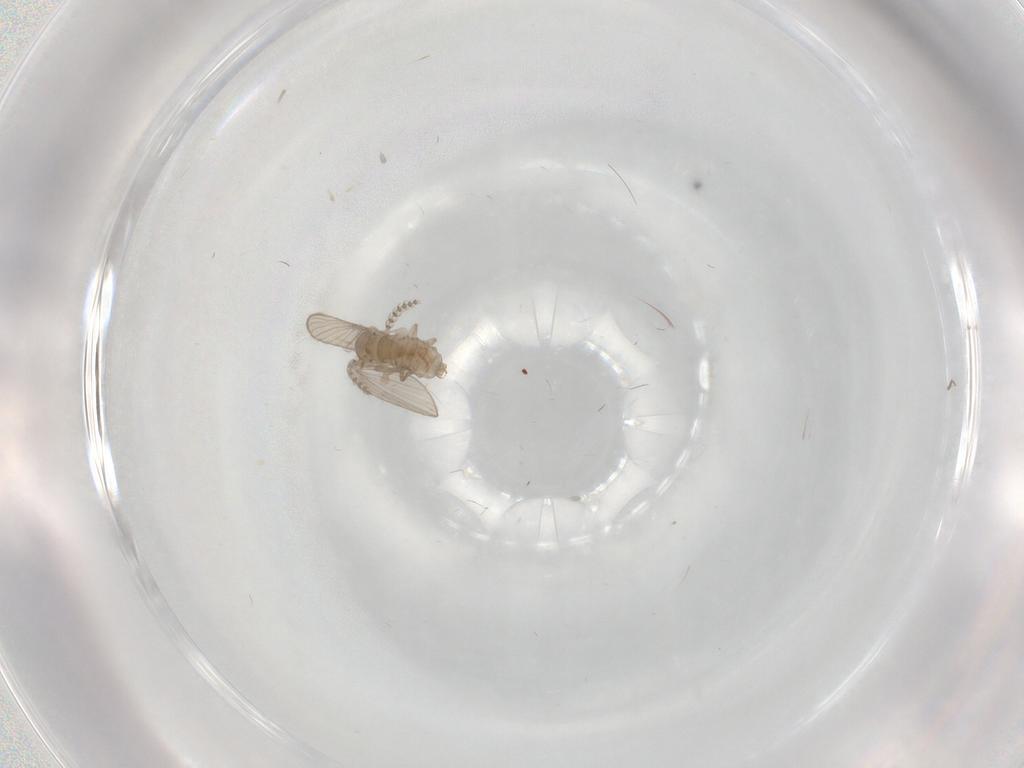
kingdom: Animalia
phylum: Arthropoda
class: Insecta
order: Diptera
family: Psychodidae
